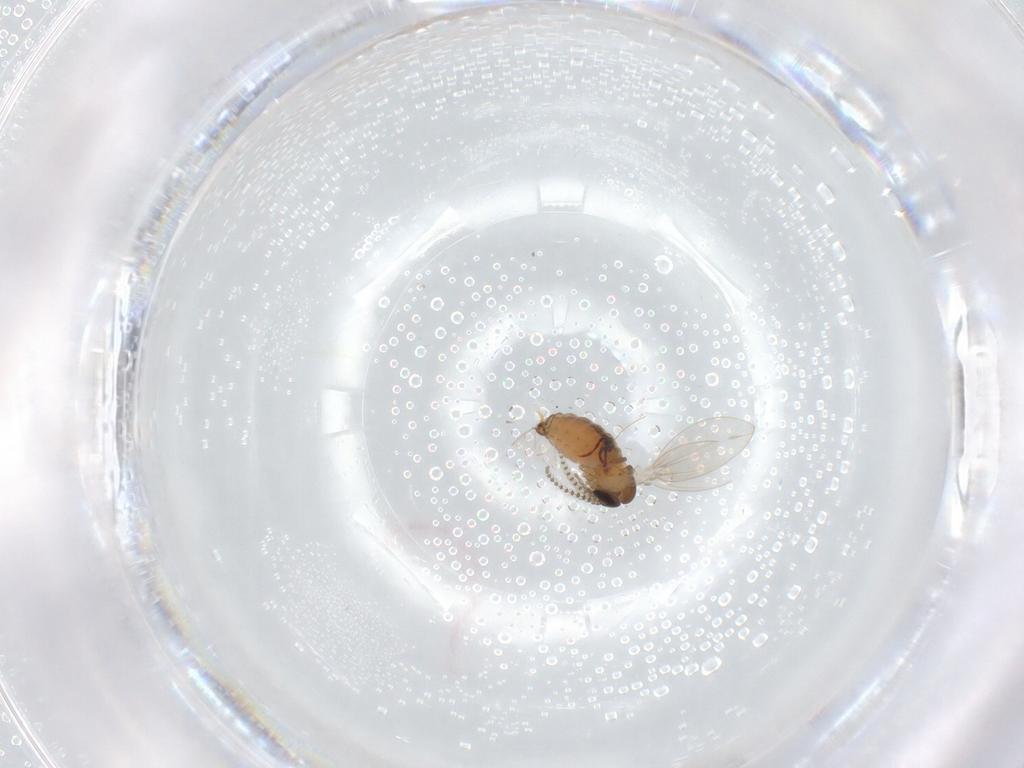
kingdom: Animalia
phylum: Arthropoda
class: Insecta
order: Diptera
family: Psychodidae
